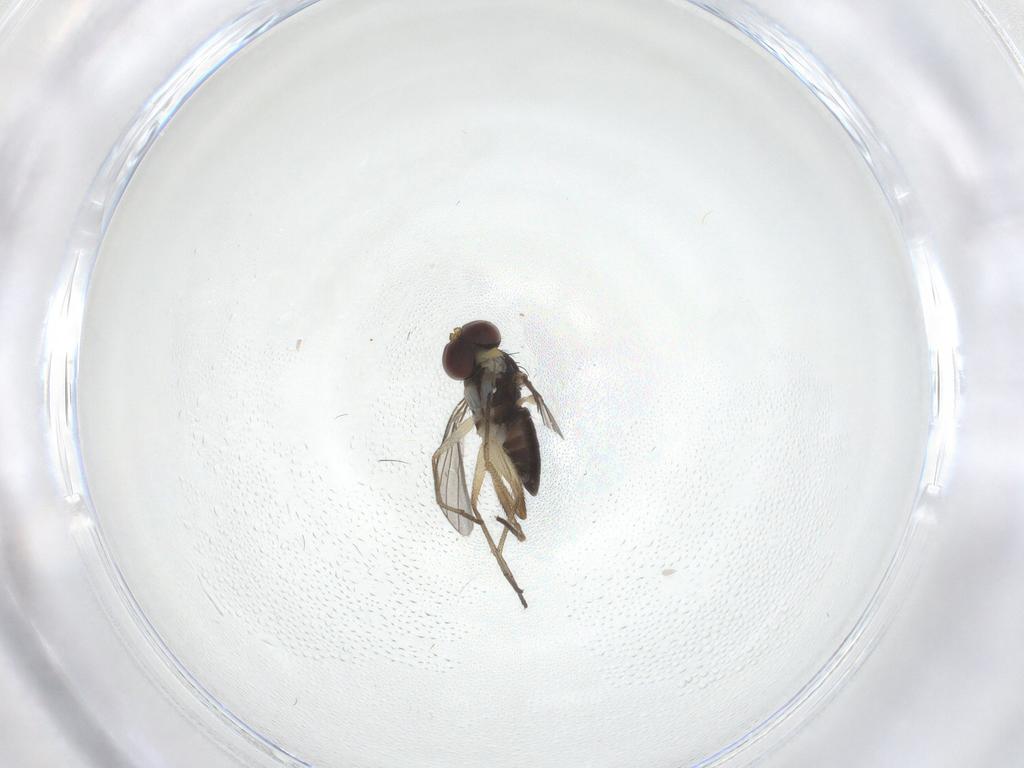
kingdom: Animalia
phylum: Arthropoda
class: Insecta
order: Diptera
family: Dolichopodidae
